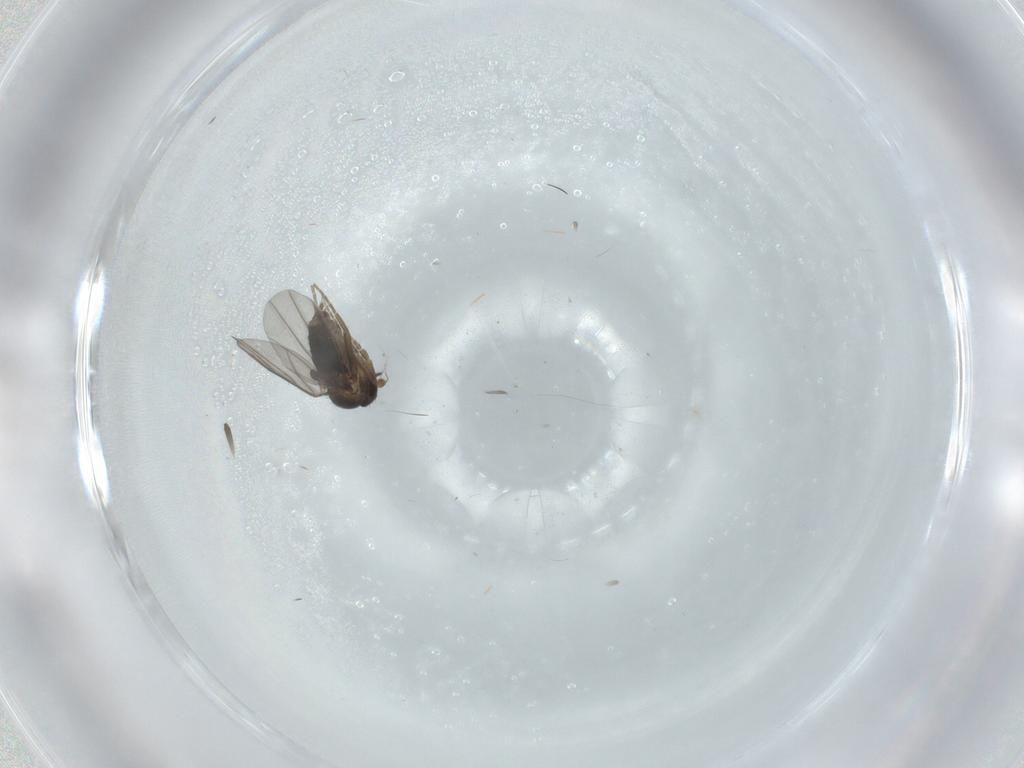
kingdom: Animalia
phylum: Arthropoda
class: Insecta
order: Diptera
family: Phoridae
